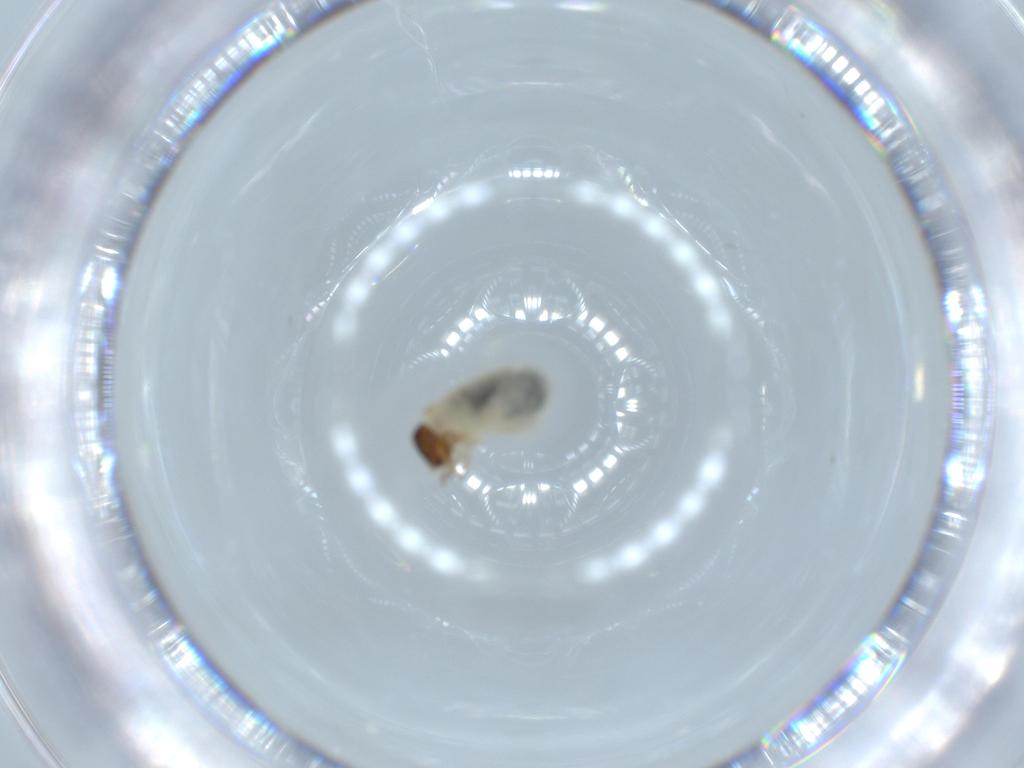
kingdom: Animalia
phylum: Arthropoda
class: Insecta
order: Coleoptera
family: Chrysomelidae
